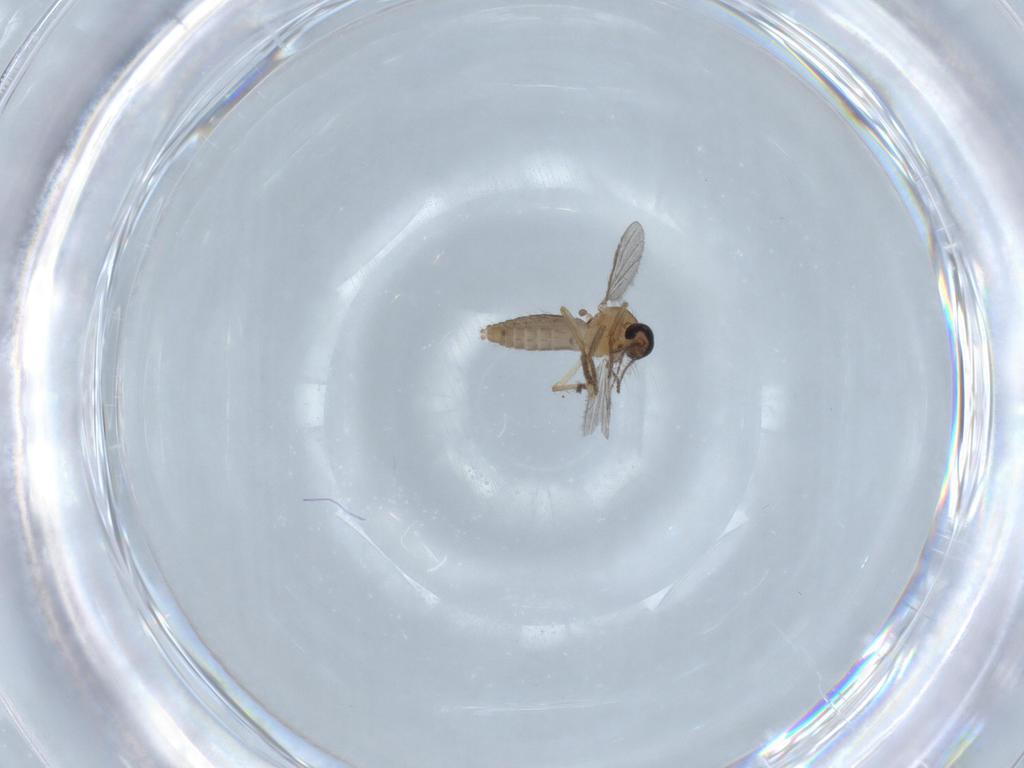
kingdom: Animalia
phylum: Arthropoda
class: Insecta
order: Diptera
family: Ceratopogonidae
